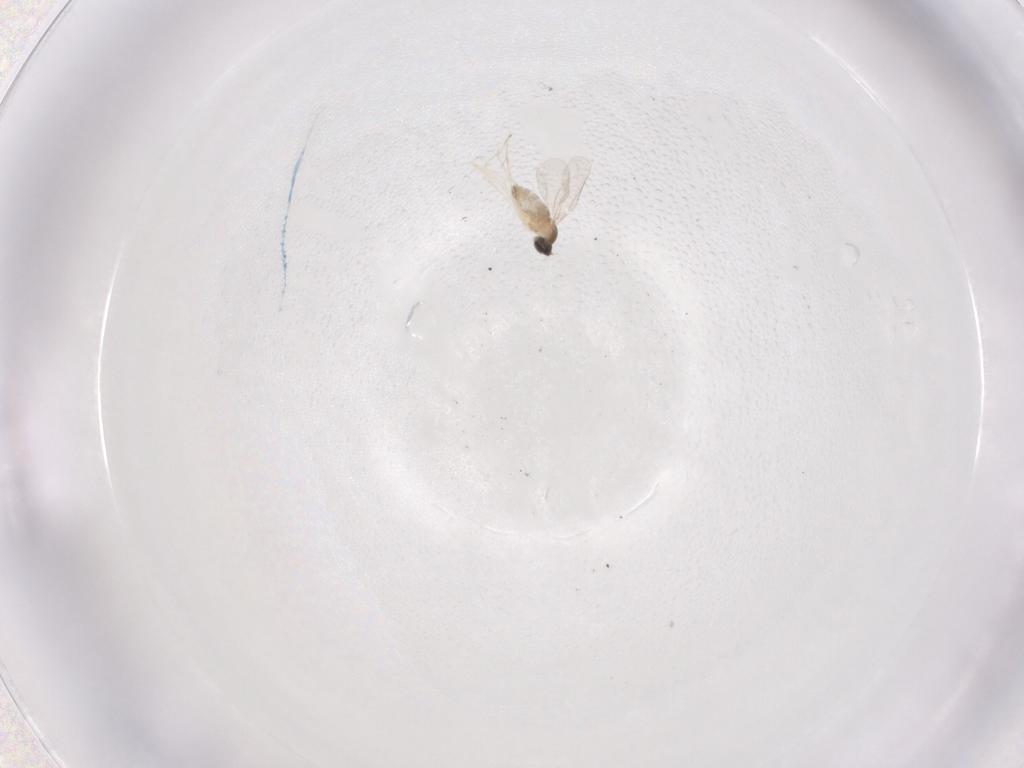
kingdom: Animalia
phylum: Arthropoda
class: Insecta
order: Diptera
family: Cecidomyiidae
